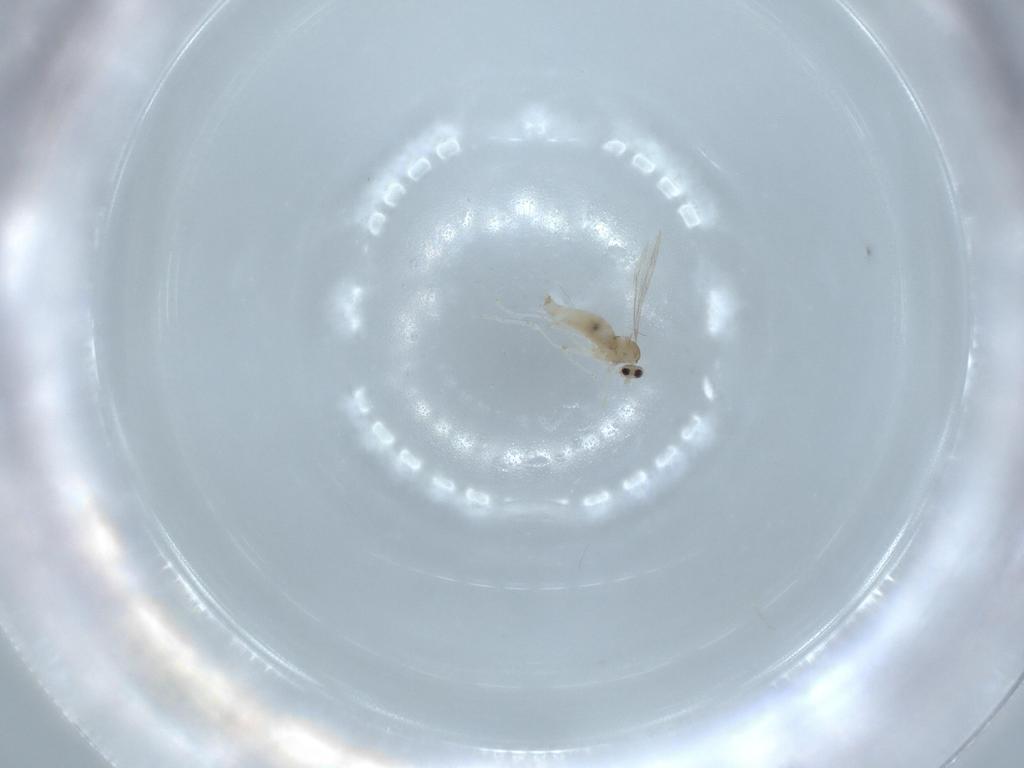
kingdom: Animalia
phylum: Arthropoda
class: Insecta
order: Diptera
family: Cecidomyiidae
